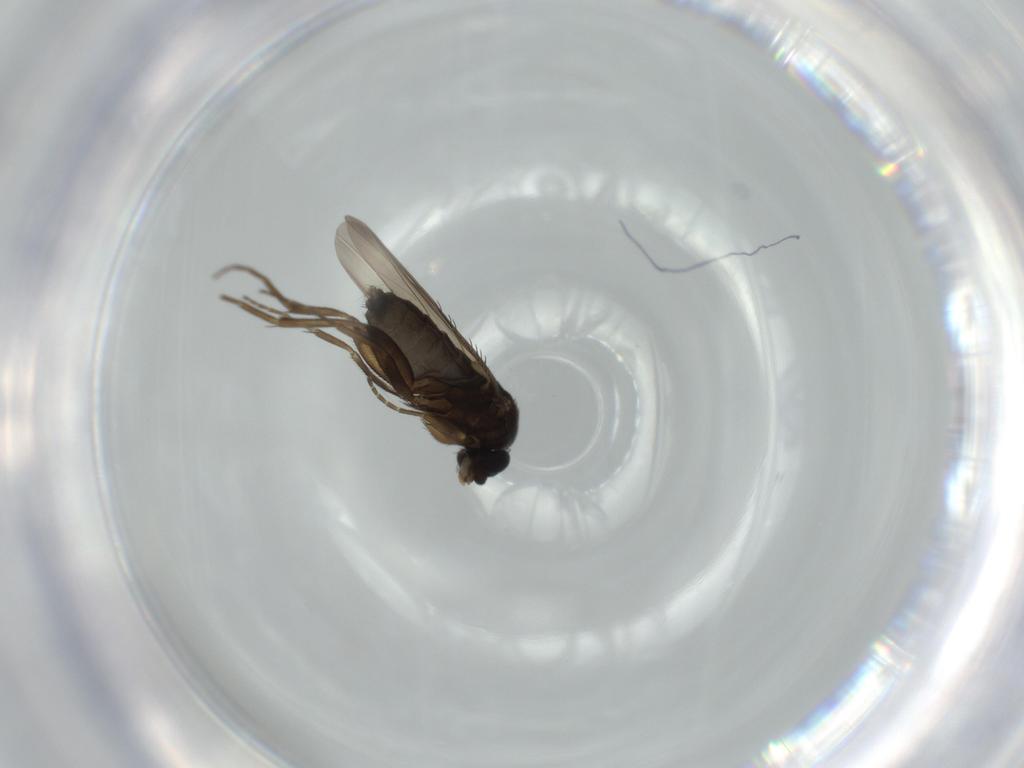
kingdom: Animalia
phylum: Arthropoda
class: Insecta
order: Diptera
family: Phoridae
